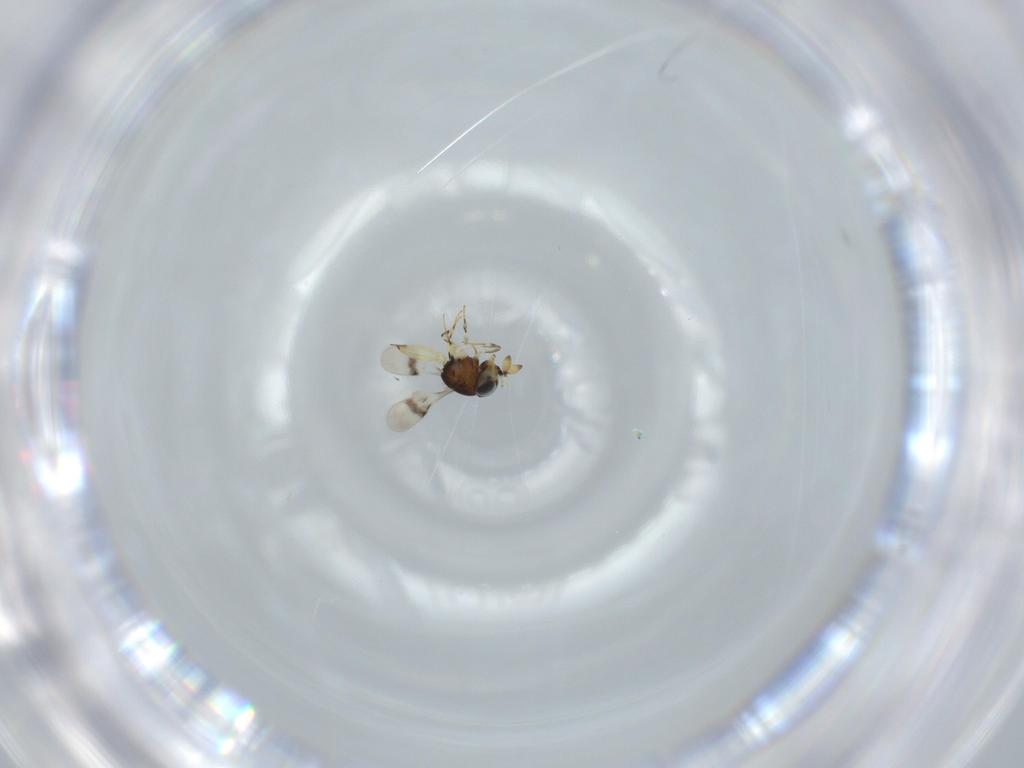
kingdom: Animalia
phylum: Arthropoda
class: Insecta
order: Hymenoptera
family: Scelionidae
